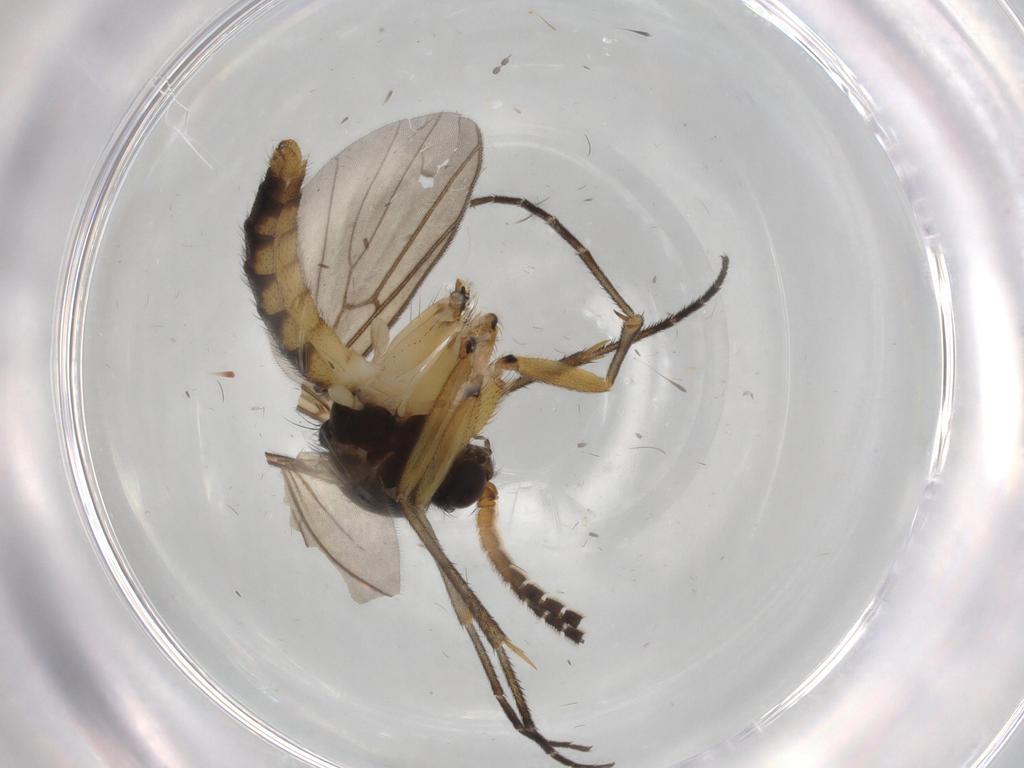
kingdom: Animalia
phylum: Arthropoda
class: Insecta
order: Diptera
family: Phoridae
